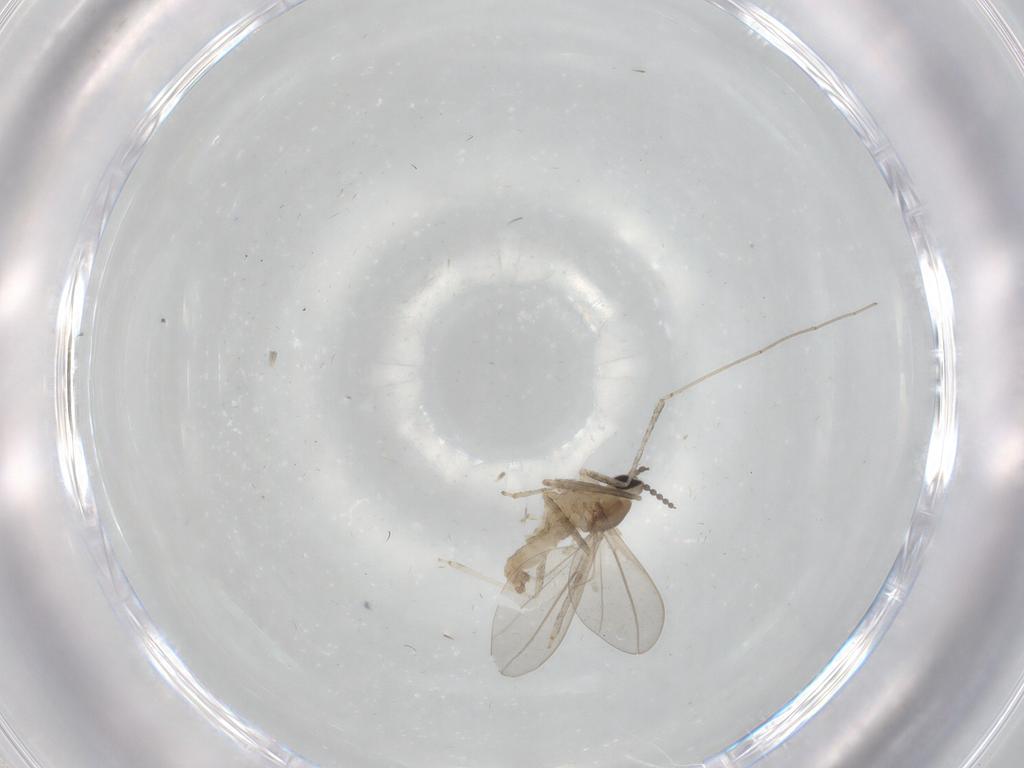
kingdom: Animalia
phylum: Arthropoda
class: Insecta
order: Diptera
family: Cecidomyiidae
